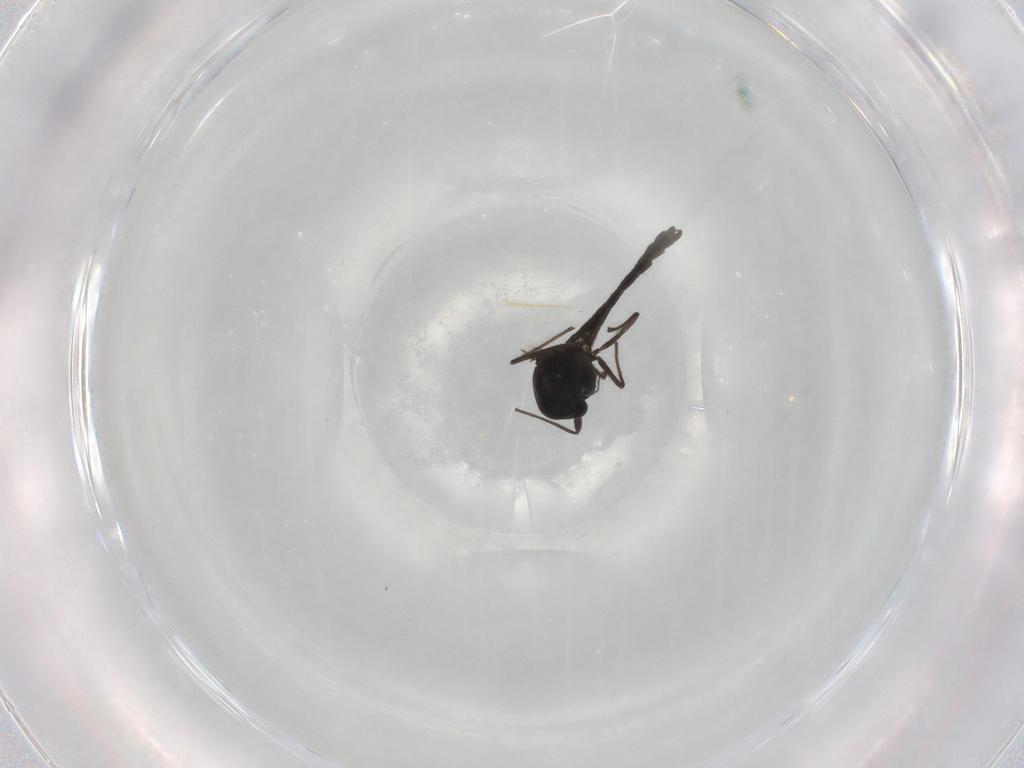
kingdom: Animalia
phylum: Arthropoda
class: Insecta
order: Diptera
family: Chironomidae
